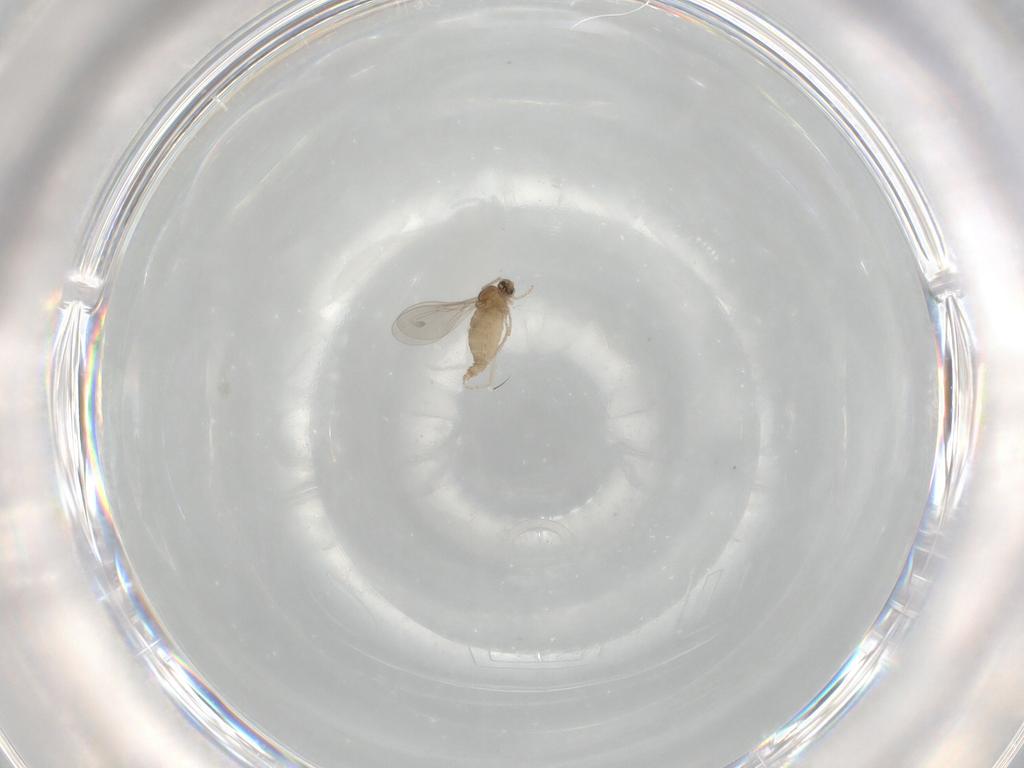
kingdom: Animalia
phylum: Arthropoda
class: Insecta
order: Diptera
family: Cecidomyiidae
